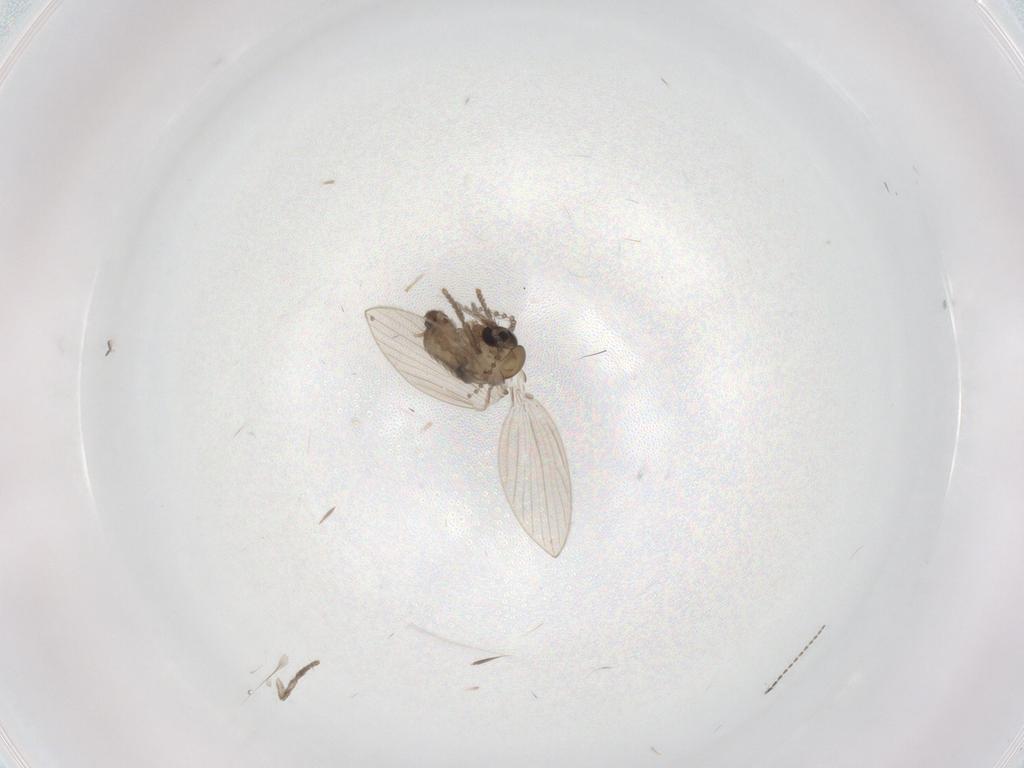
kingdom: Animalia
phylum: Arthropoda
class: Insecta
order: Diptera
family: Psychodidae
